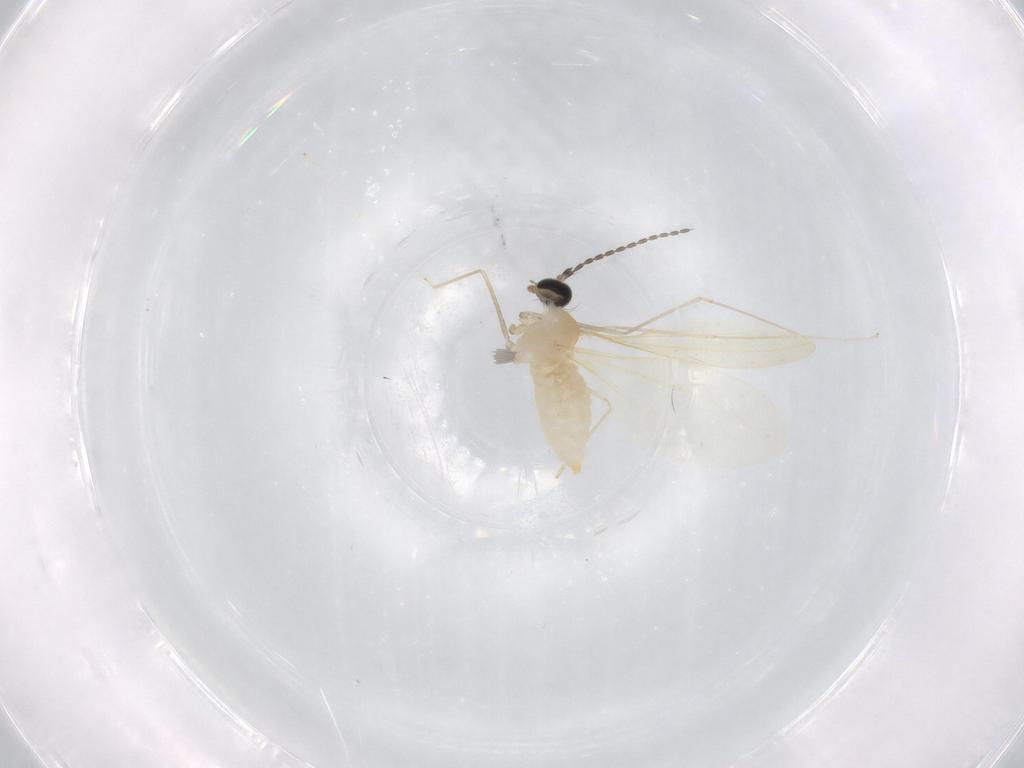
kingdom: Animalia
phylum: Arthropoda
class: Insecta
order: Diptera
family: Cecidomyiidae
